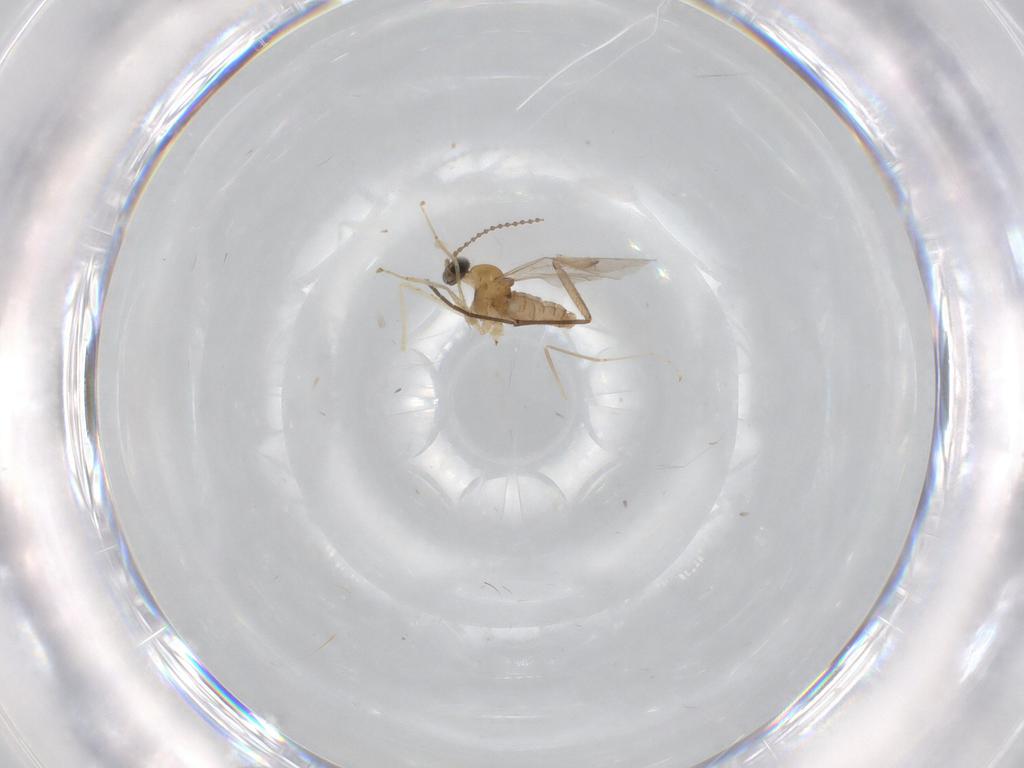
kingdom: Animalia
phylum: Arthropoda
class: Insecta
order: Diptera
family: Cecidomyiidae
